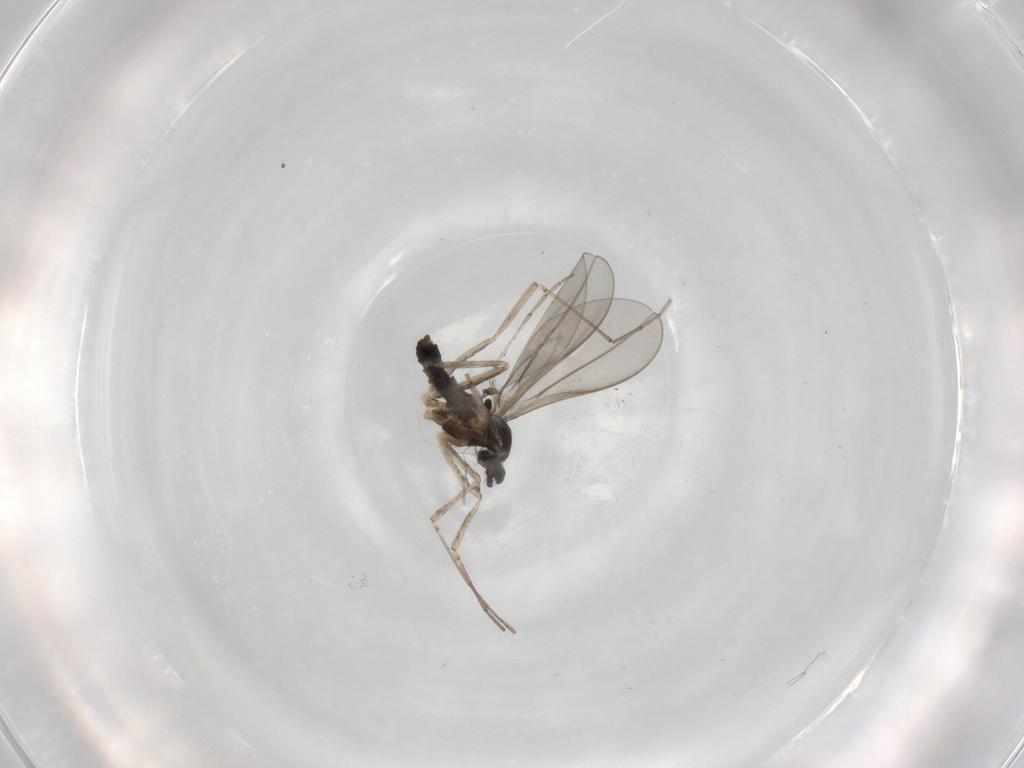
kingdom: Animalia
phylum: Arthropoda
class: Insecta
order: Diptera
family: Cecidomyiidae
